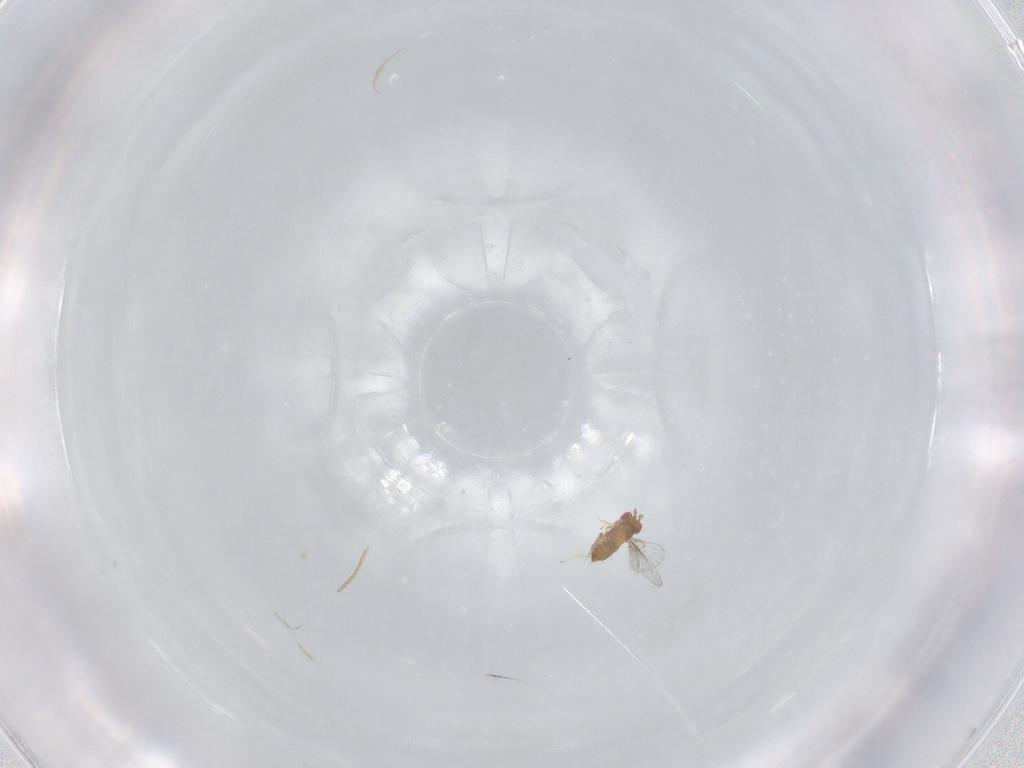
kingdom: Animalia
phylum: Arthropoda
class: Insecta
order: Hymenoptera
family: Trichogrammatidae
